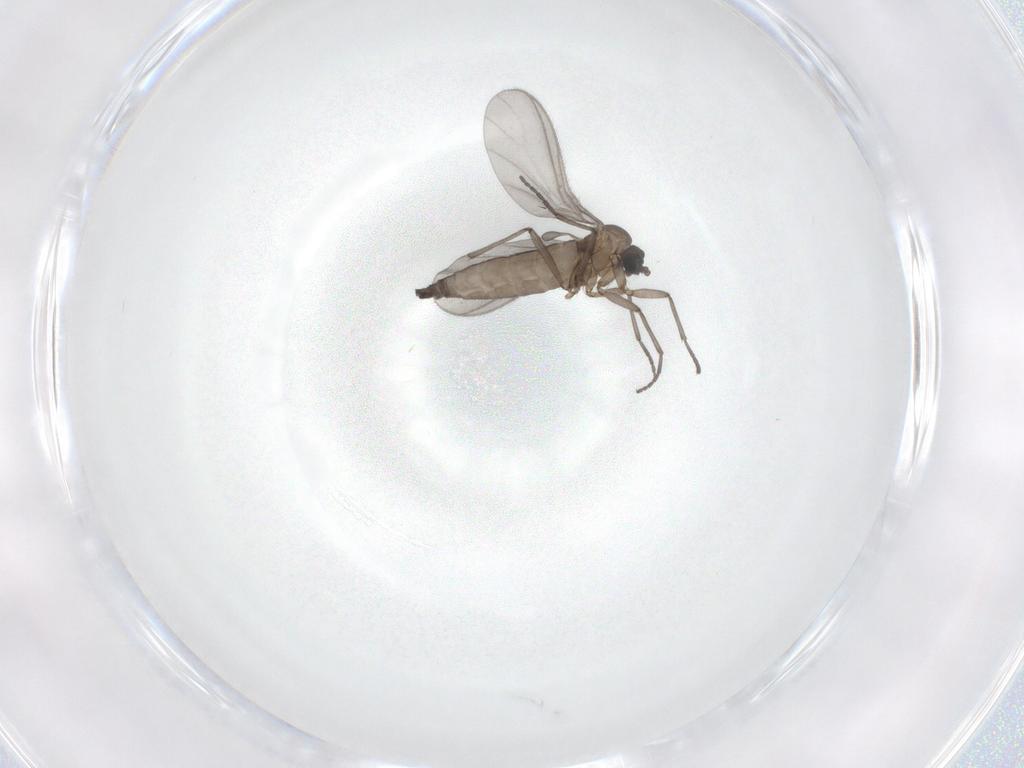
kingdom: Animalia
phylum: Arthropoda
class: Insecta
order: Diptera
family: Sciaridae
